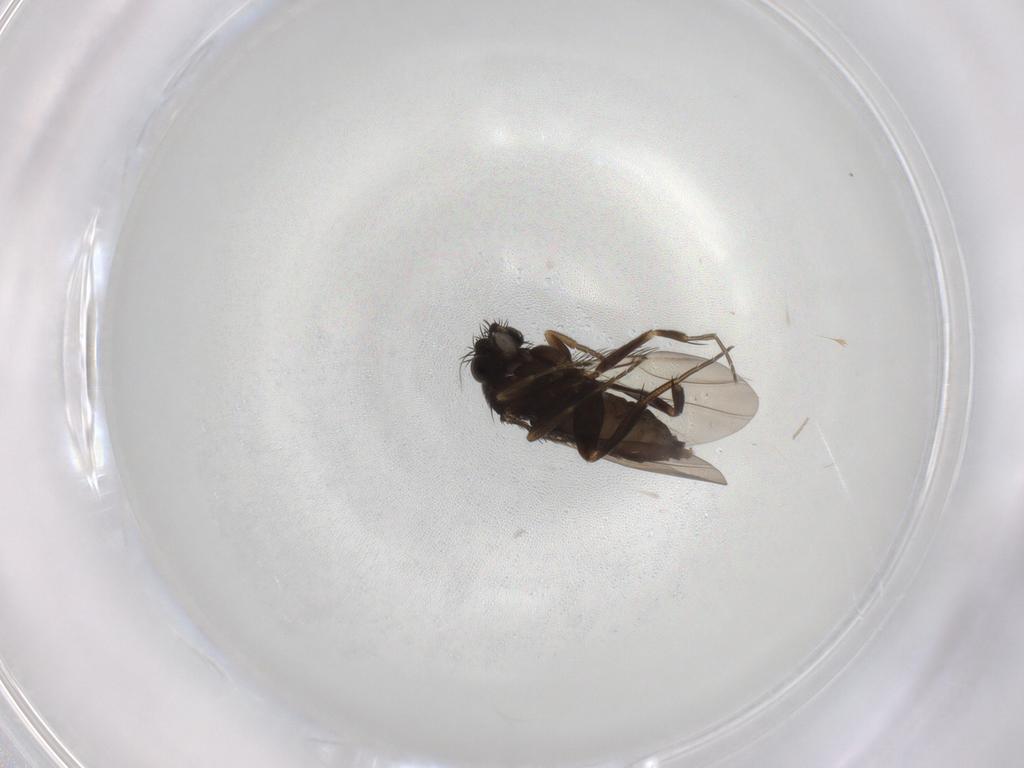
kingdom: Animalia
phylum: Arthropoda
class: Insecta
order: Diptera
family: Phoridae
